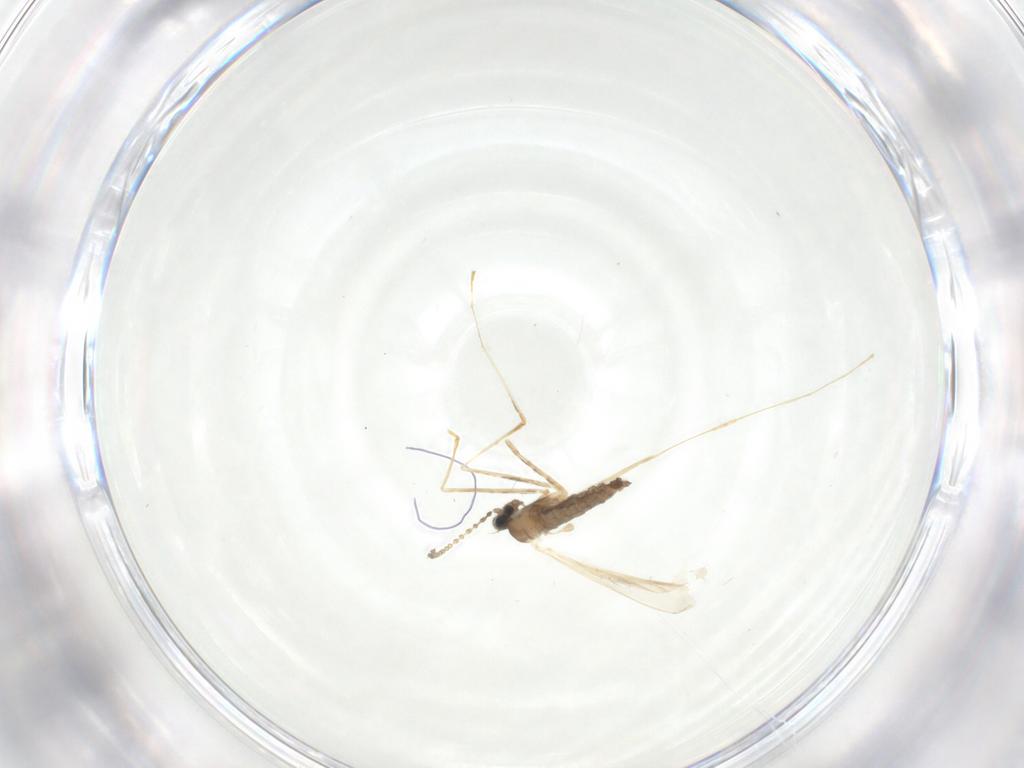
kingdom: Animalia
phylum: Arthropoda
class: Insecta
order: Diptera
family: Cecidomyiidae
